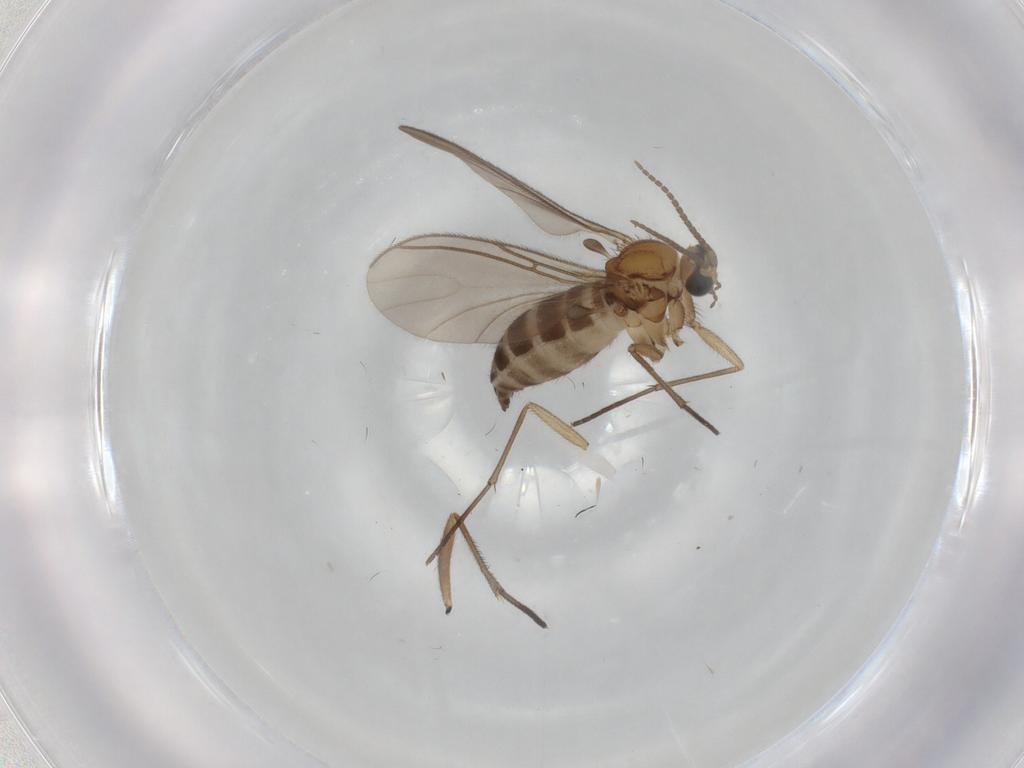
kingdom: Animalia
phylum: Arthropoda
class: Insecta
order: Diptera
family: Sciaridae
